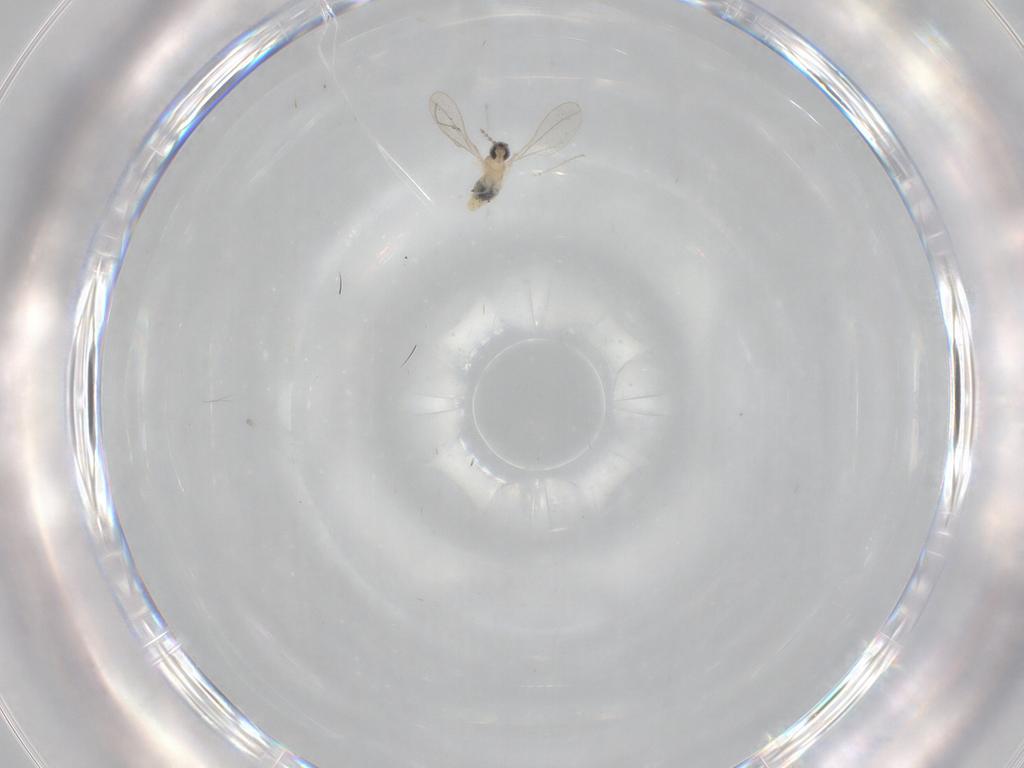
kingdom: Animalia
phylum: Arthropoda
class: Insecta
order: Diptera
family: Cecidomyiidae
